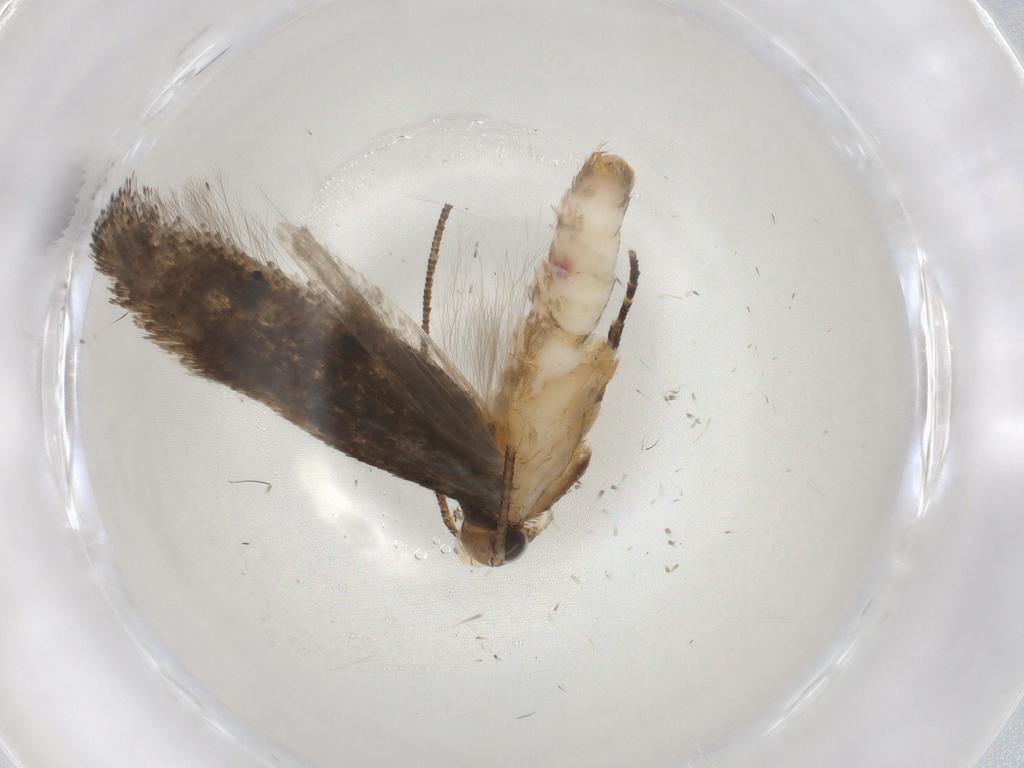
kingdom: Animalia
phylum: Arthropoda
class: Insecta
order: Lepidoptera
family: Gelechiidae
